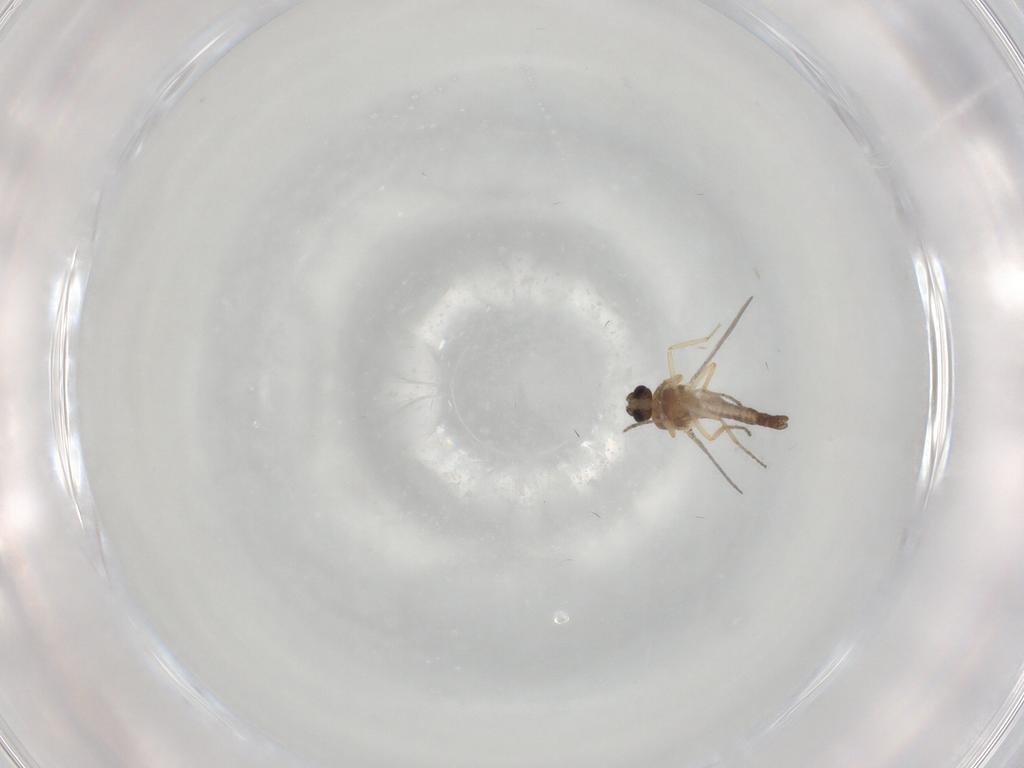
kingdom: Animalia
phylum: Arthropoda
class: Insecta
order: Diptera
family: Ceratopogonidae
